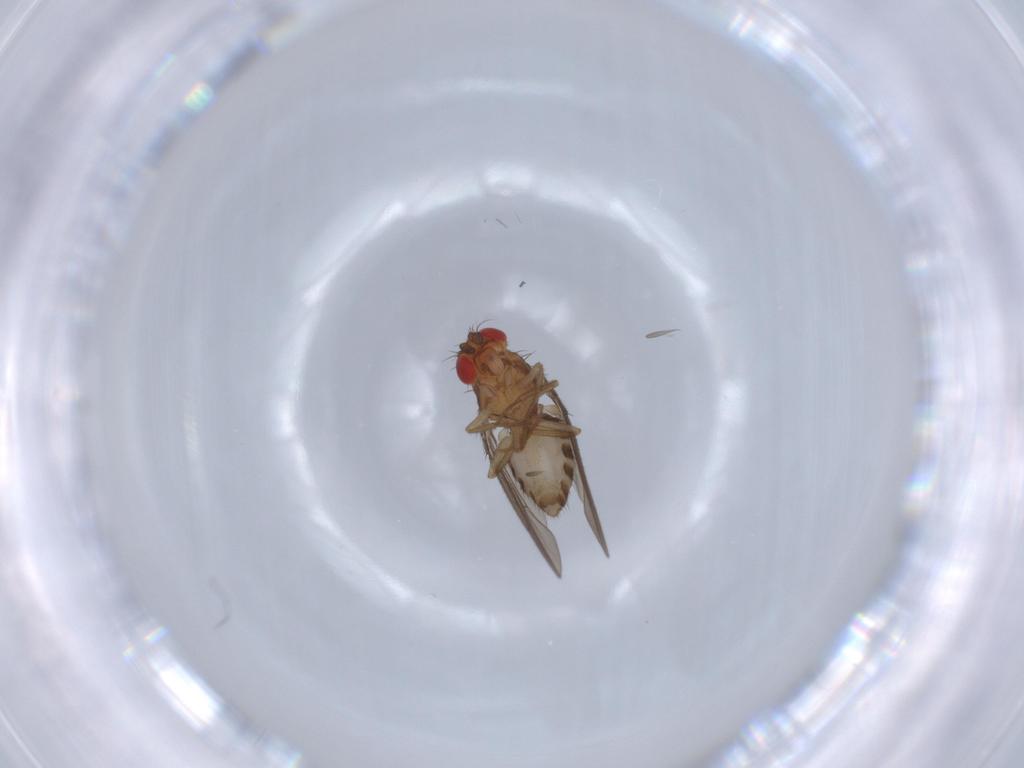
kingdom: Animalia
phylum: Arthropoda
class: Insecta
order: Diptera
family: Drosophilidae
